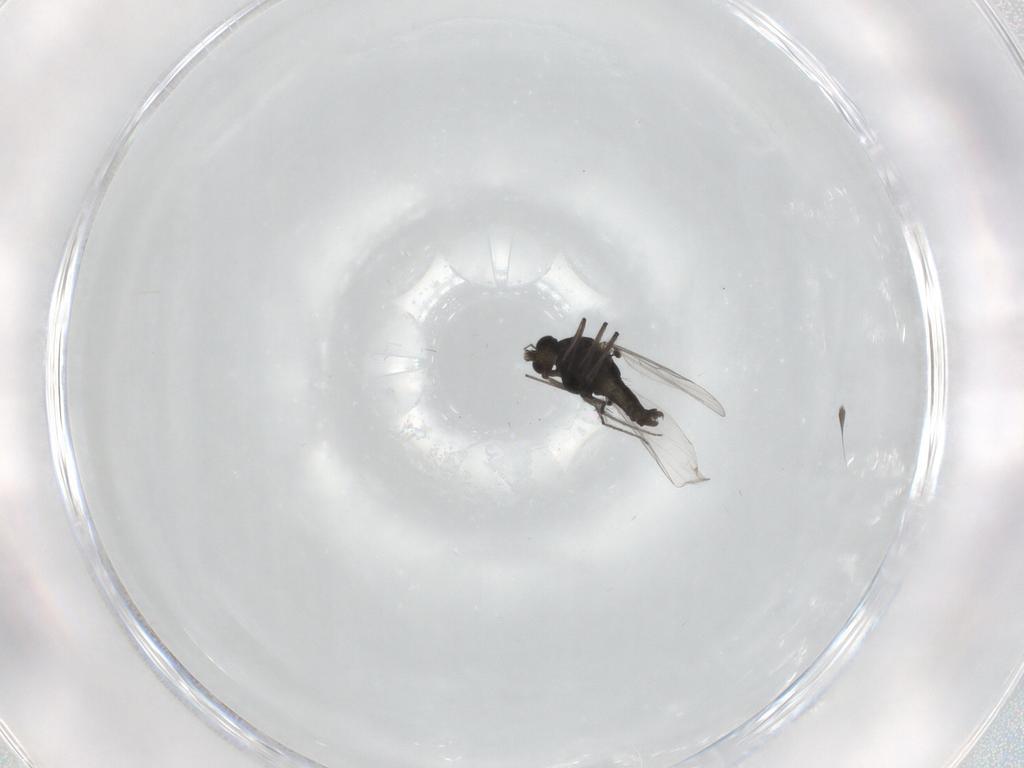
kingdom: Animalia
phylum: Arthropoda
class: Insecta
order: Diptera
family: Chironomidae
